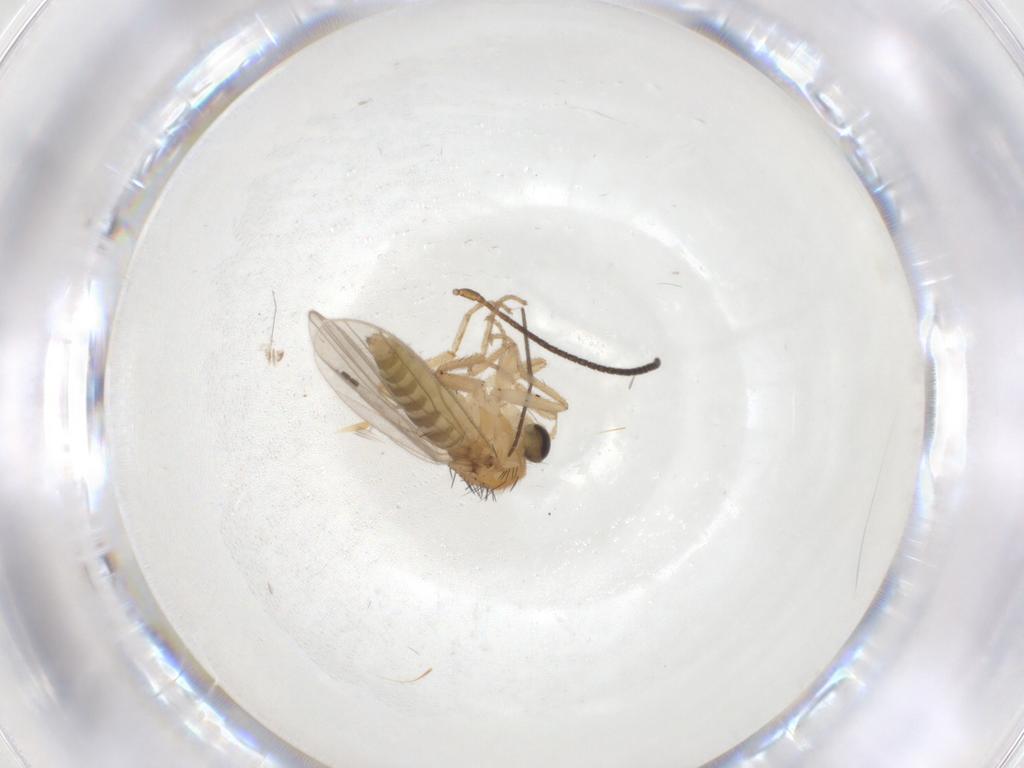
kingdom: Animalia
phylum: Arthropoda
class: Insecta
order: Diptera
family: Hybotidae
